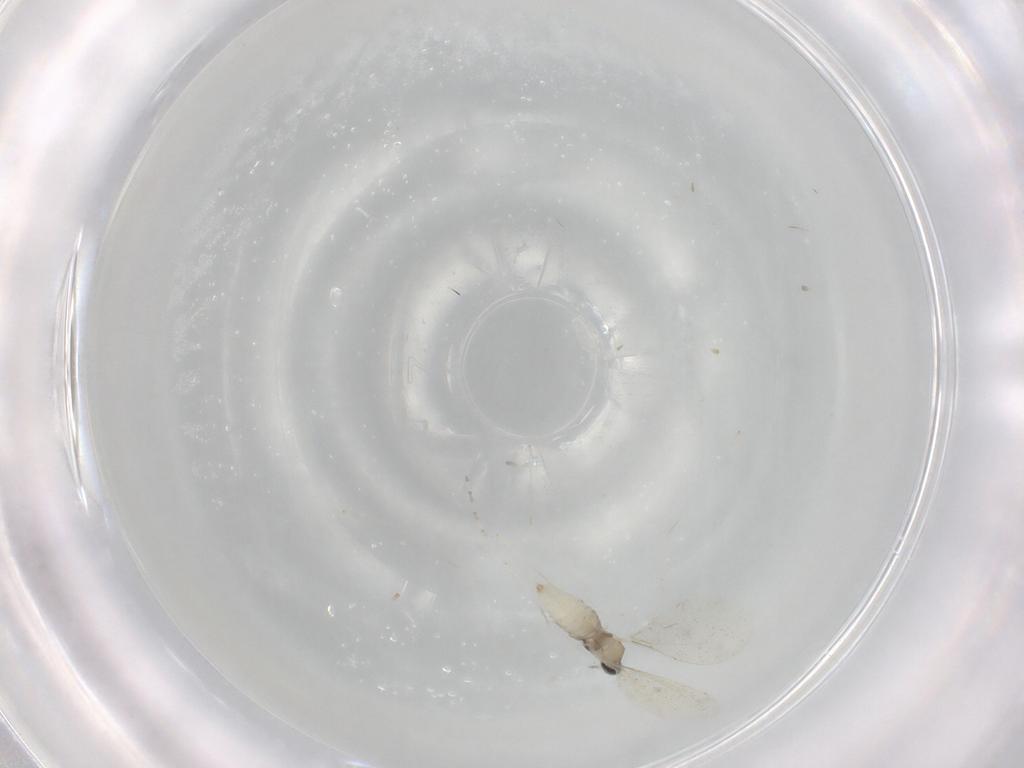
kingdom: Animalia
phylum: Arthropoda
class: Insecta
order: Diptera
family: Cecidomyiidae
